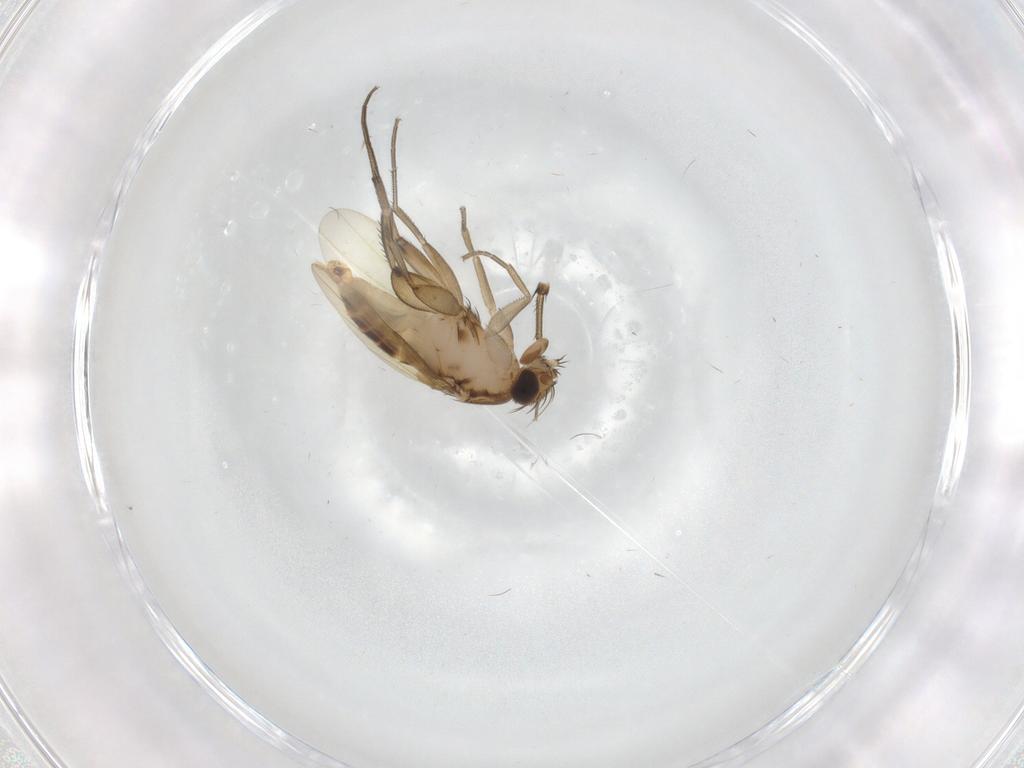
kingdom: Animalia
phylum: Arthropoda
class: Insecta
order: Diptera
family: Phoridae
